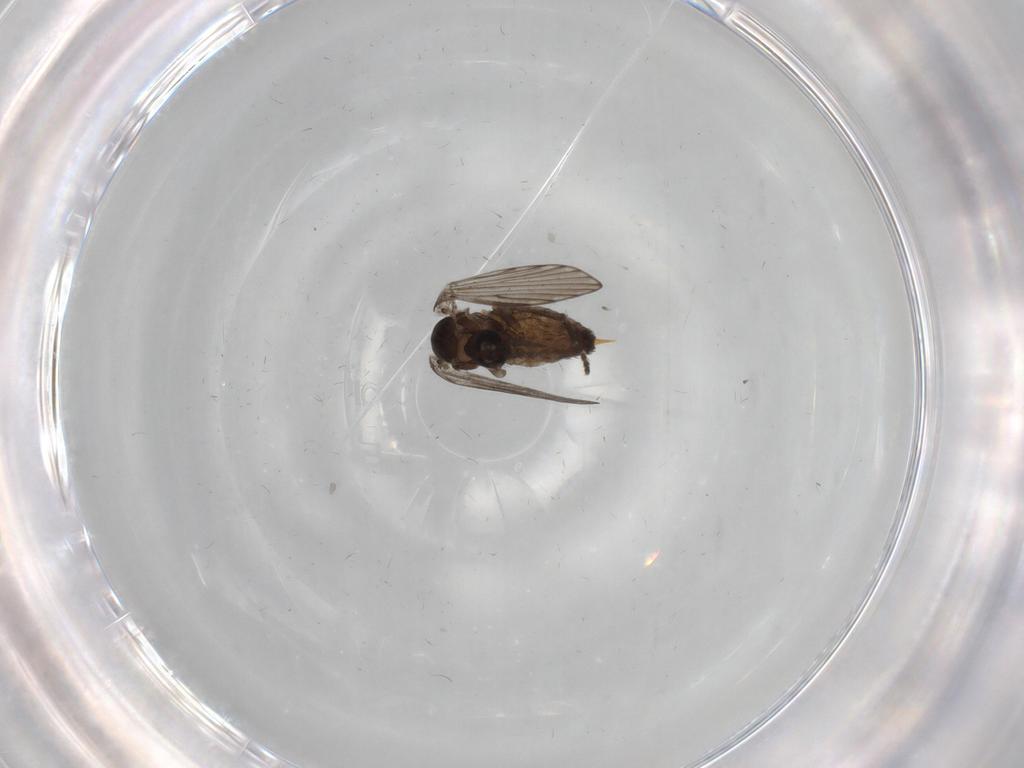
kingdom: Animalia
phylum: Arthropoda
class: Insecta
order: Diptera
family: Psychodidae
